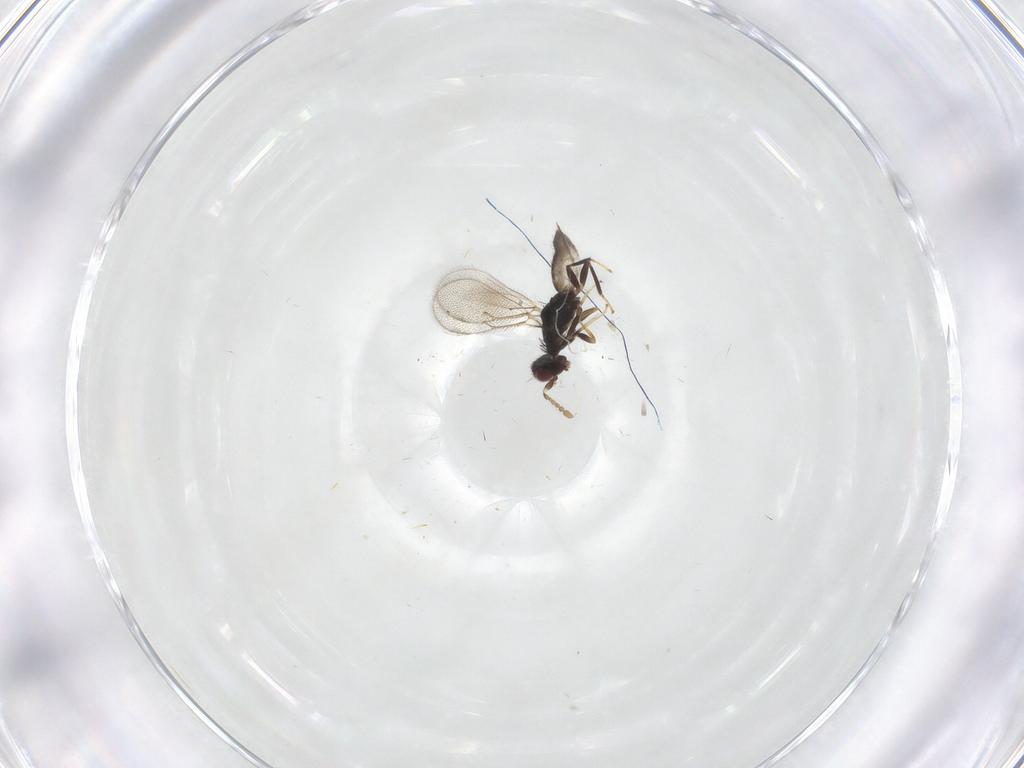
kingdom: Animalia
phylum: Arthropoda
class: Insecta
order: Hymenoptera
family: Eulophidae
